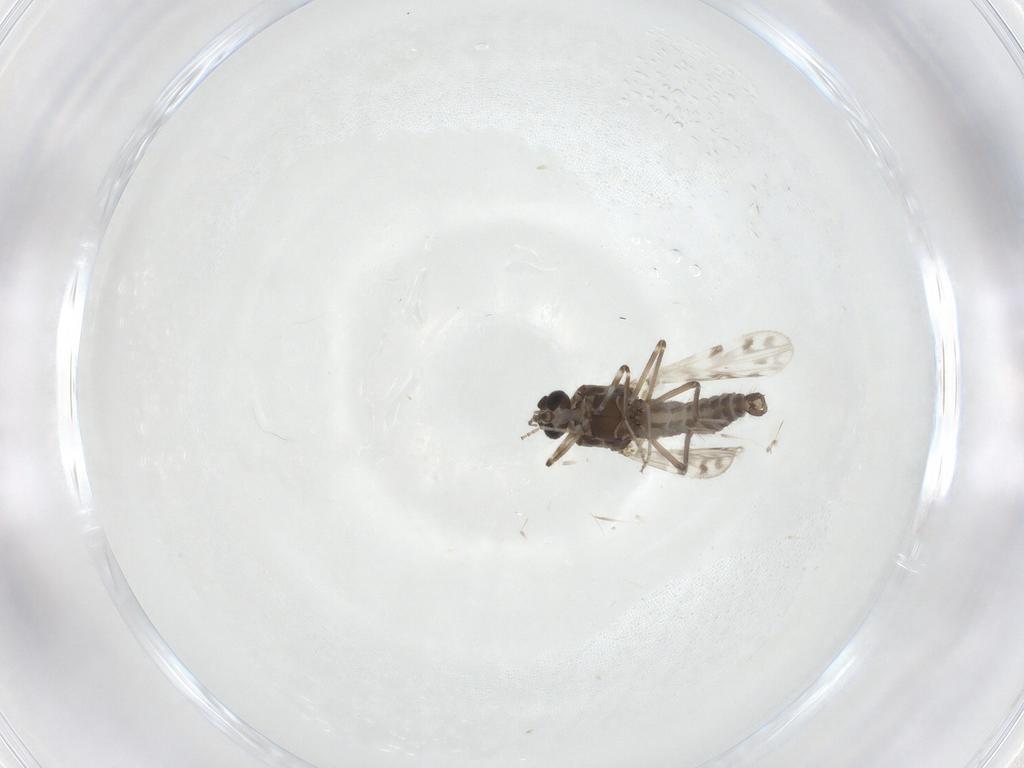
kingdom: Animalia
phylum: Arthropoda
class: Insecta
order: Diptera
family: Ceratopogonidae
